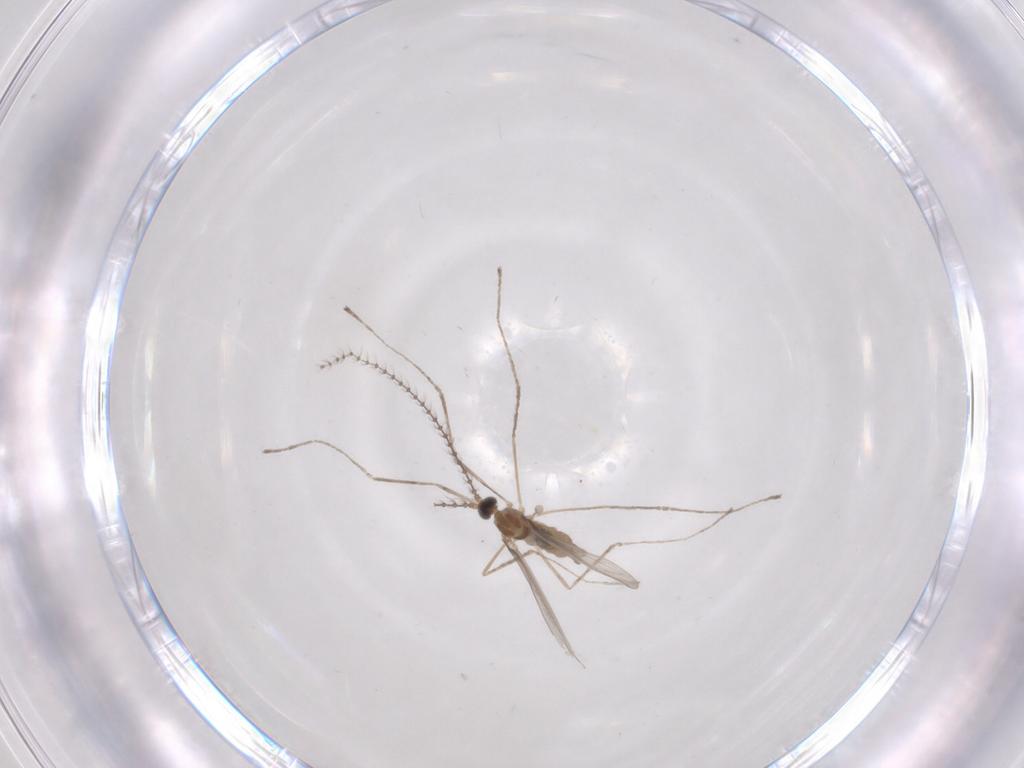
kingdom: Animalia
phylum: Arthropoda
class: Insecta
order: Diptera
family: Cecidomyiidae
